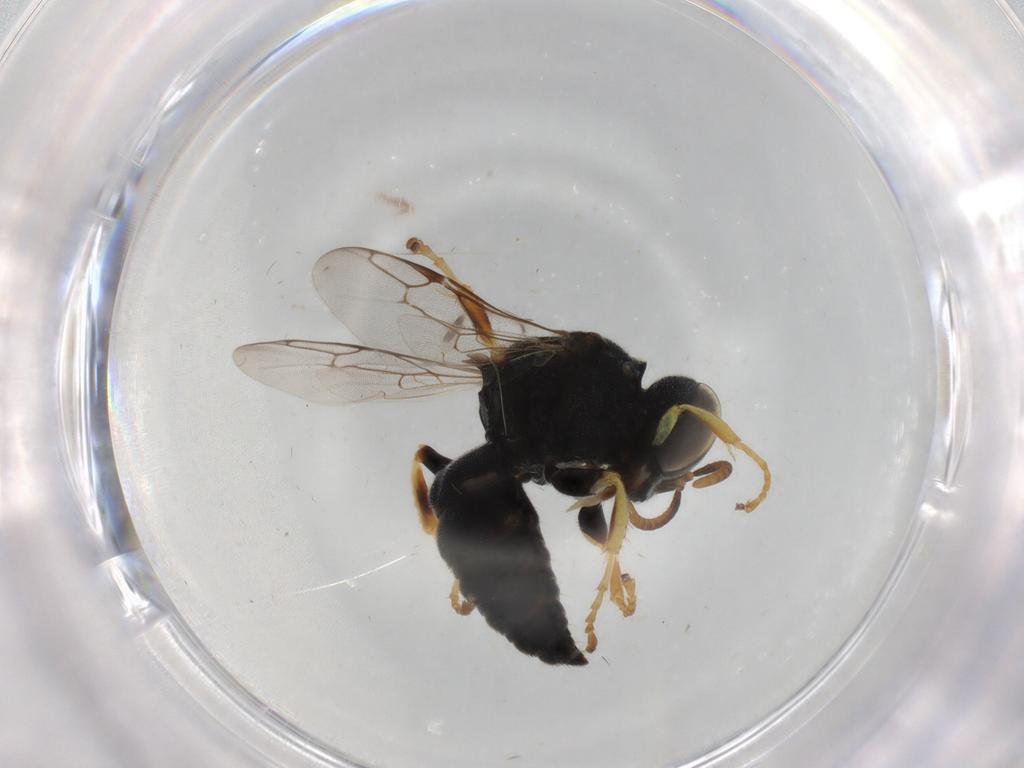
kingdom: Animalia
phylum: Arthropoda
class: Insecta
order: Hymenoptera
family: Crabronidae
